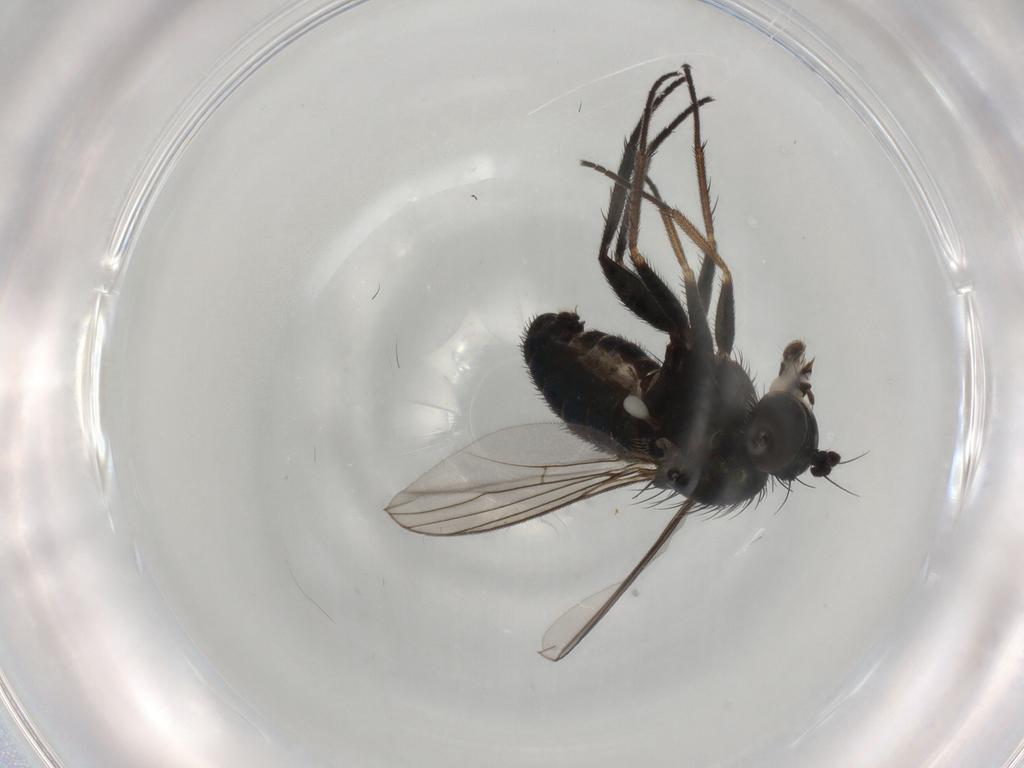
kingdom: Animalia
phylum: Arthropoda
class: Insecta
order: Diptera
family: Dolichopodidae
